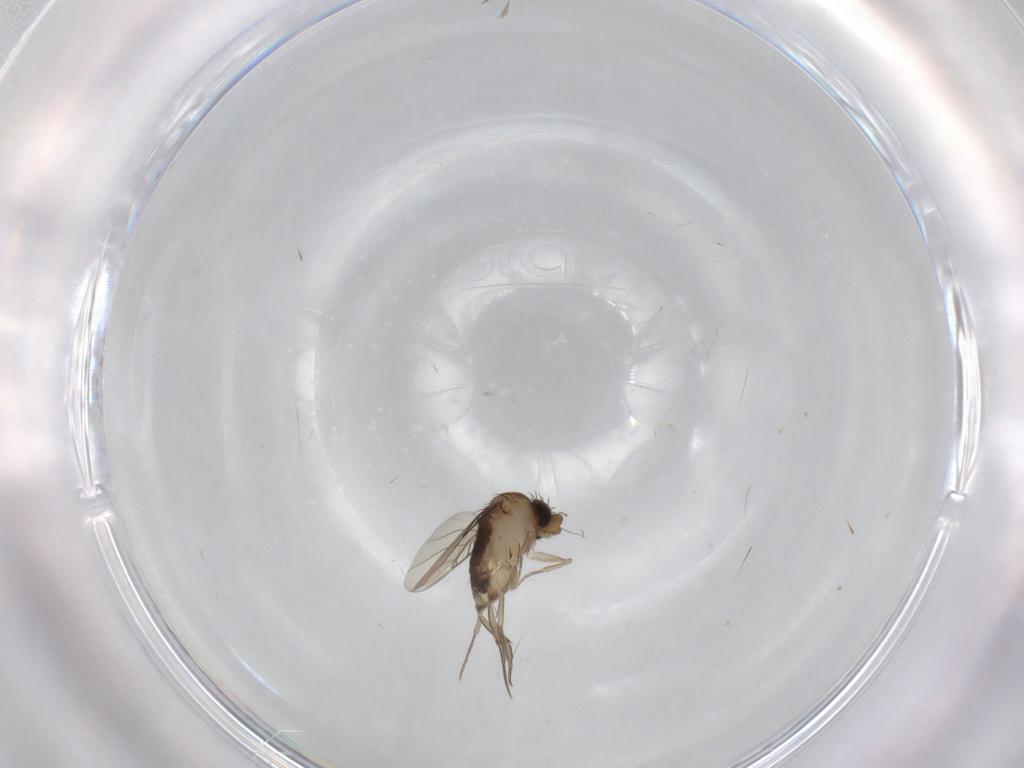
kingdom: Animalia
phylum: Arthropoda
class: Insecta
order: Diptera
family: Phoridae
